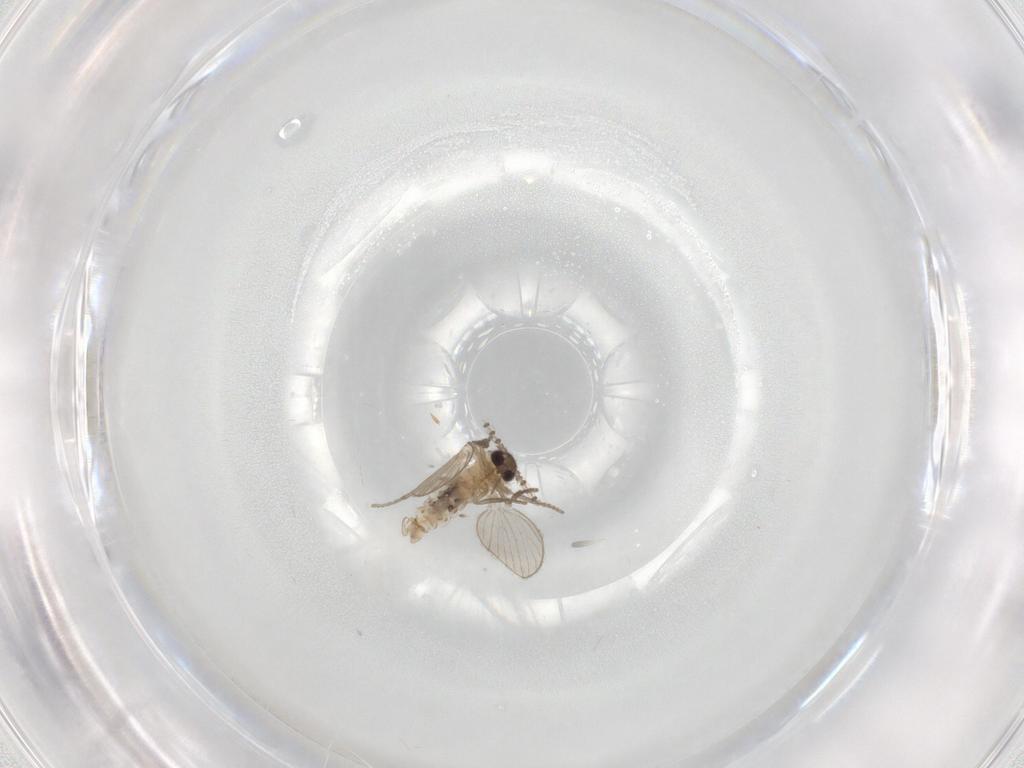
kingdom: Animalia
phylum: Arthropoda
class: Insecta
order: Diptera
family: Psychodidae
